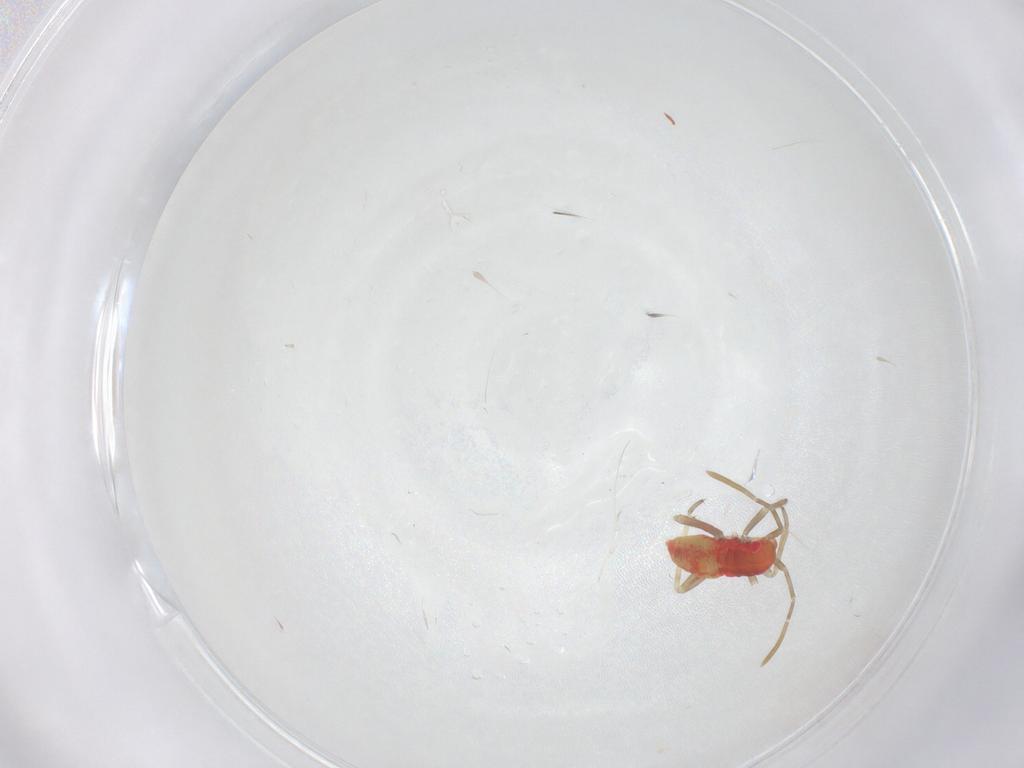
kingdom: Animalia
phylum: Arthropoda
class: Insecta
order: Hemiptera
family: Miridae
